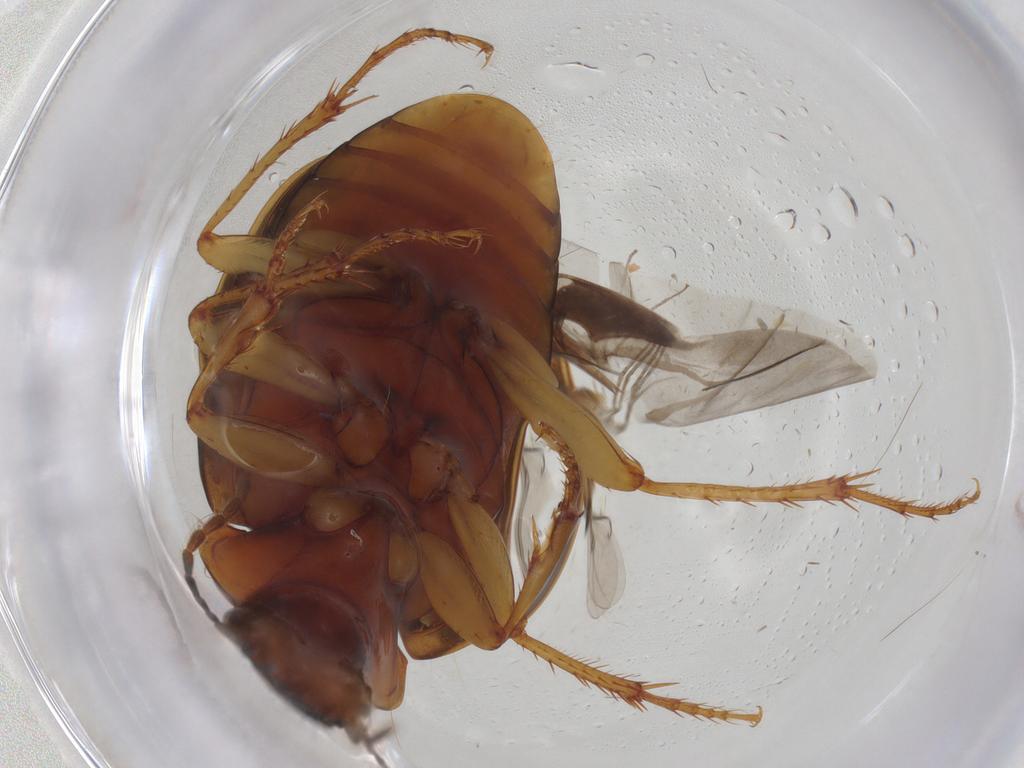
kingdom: Animalia
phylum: Arthropoda
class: Insecta
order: Coleoptera
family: Carabidae
